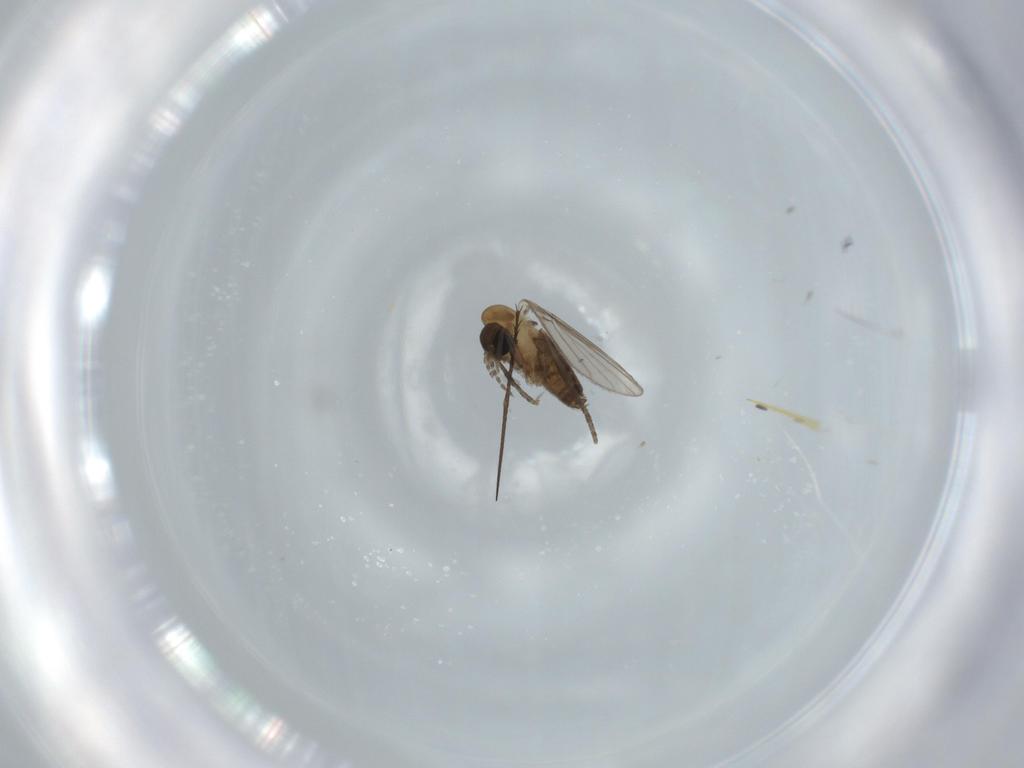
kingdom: Animalia
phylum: Arthropoda
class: Insecta
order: Diptera
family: Psychodidae
